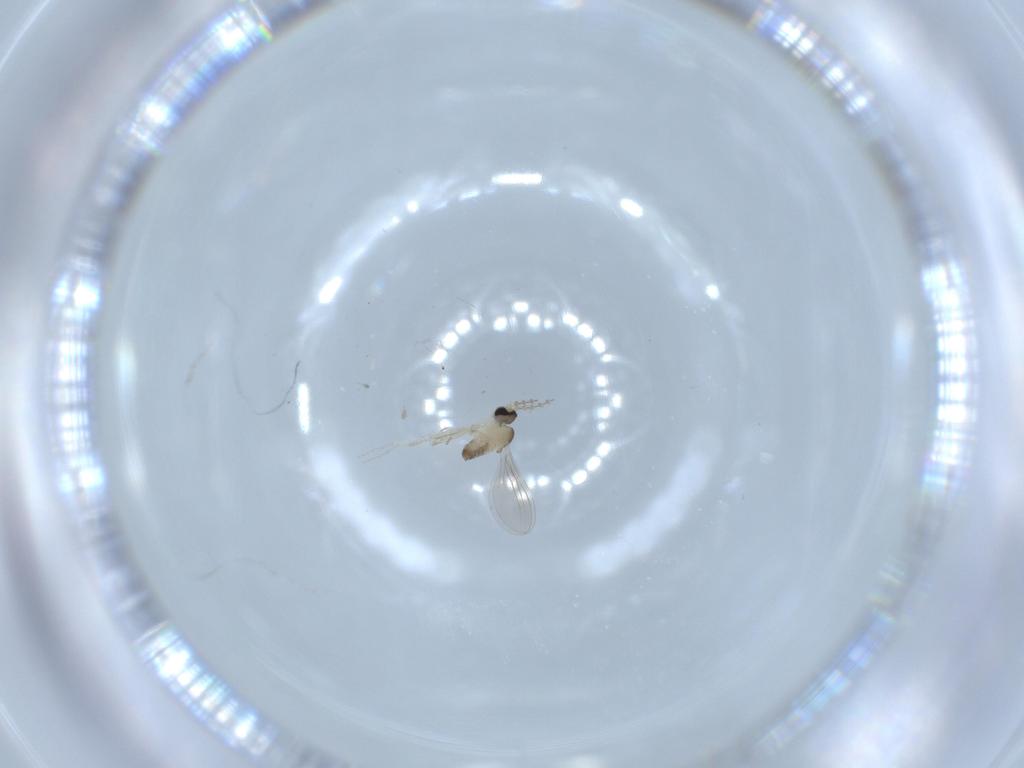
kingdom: Animalia
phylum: Arthropoda
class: Insecta
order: Diptera
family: Cecidomyiidae
